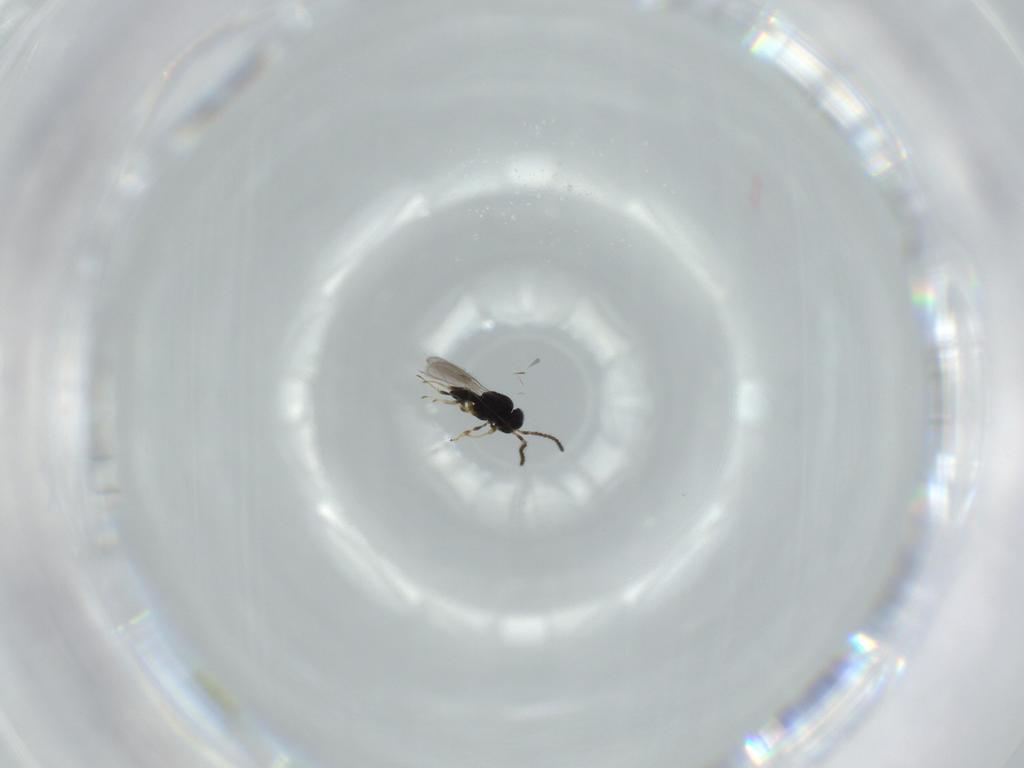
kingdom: Animalia
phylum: Arthropoda
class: Insecta
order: Hymenoptera
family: Scelionidae
